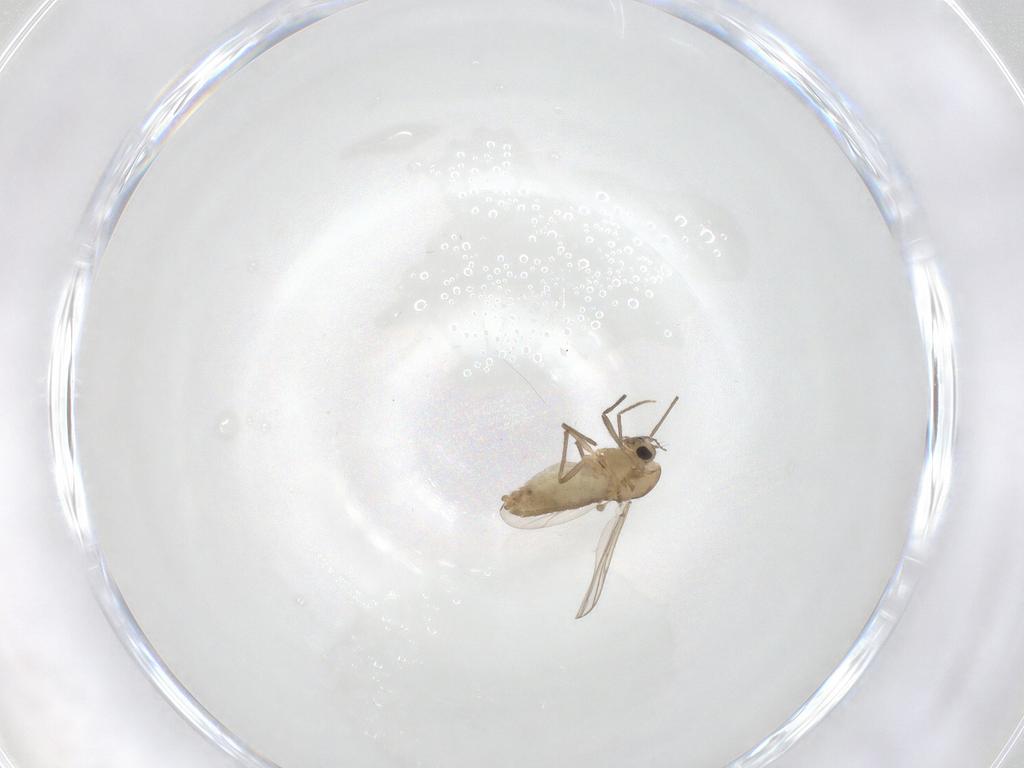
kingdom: Animalia
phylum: Arthropoda
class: Insecta
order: Diptera
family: Chironomidae
